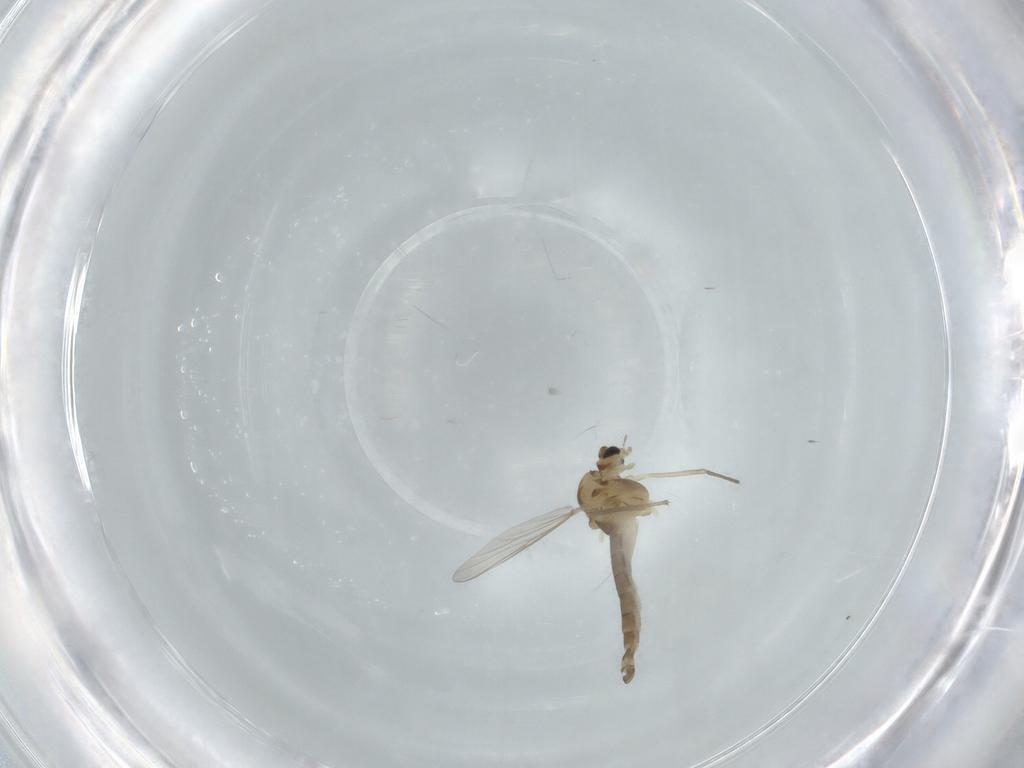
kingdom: Animalia
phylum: Arthropoda
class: Insecta
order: Diptera
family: Chironomidae
